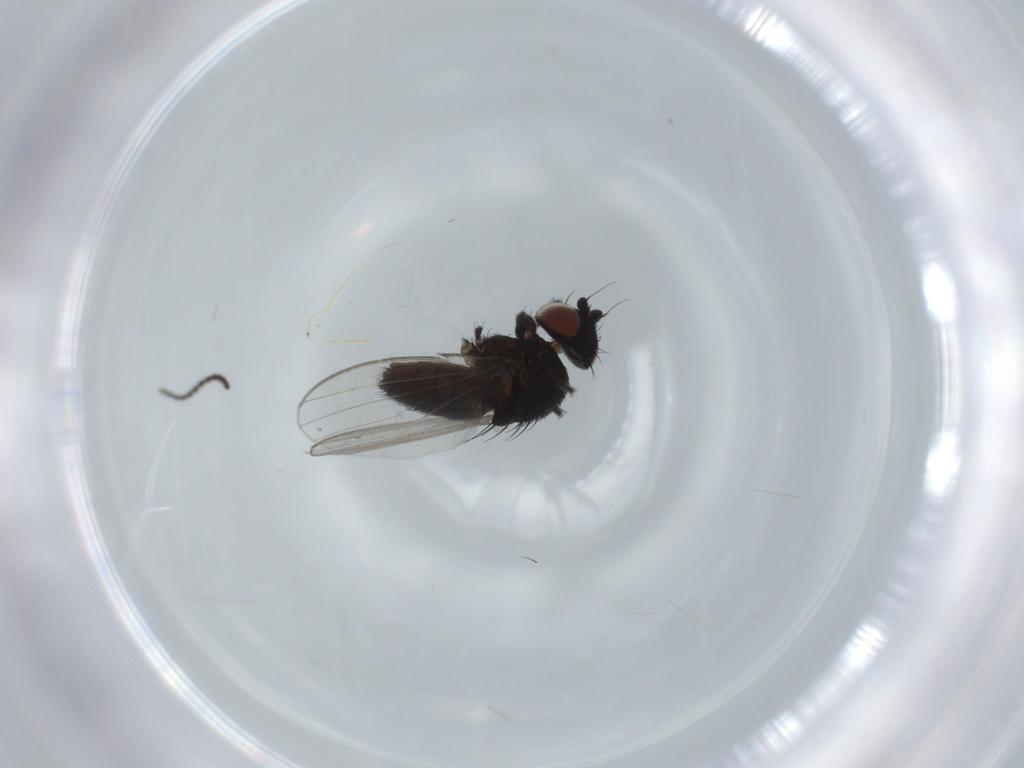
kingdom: Animalia
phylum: Arthropoda
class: Insecta
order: Diptera
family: Milichiidae
